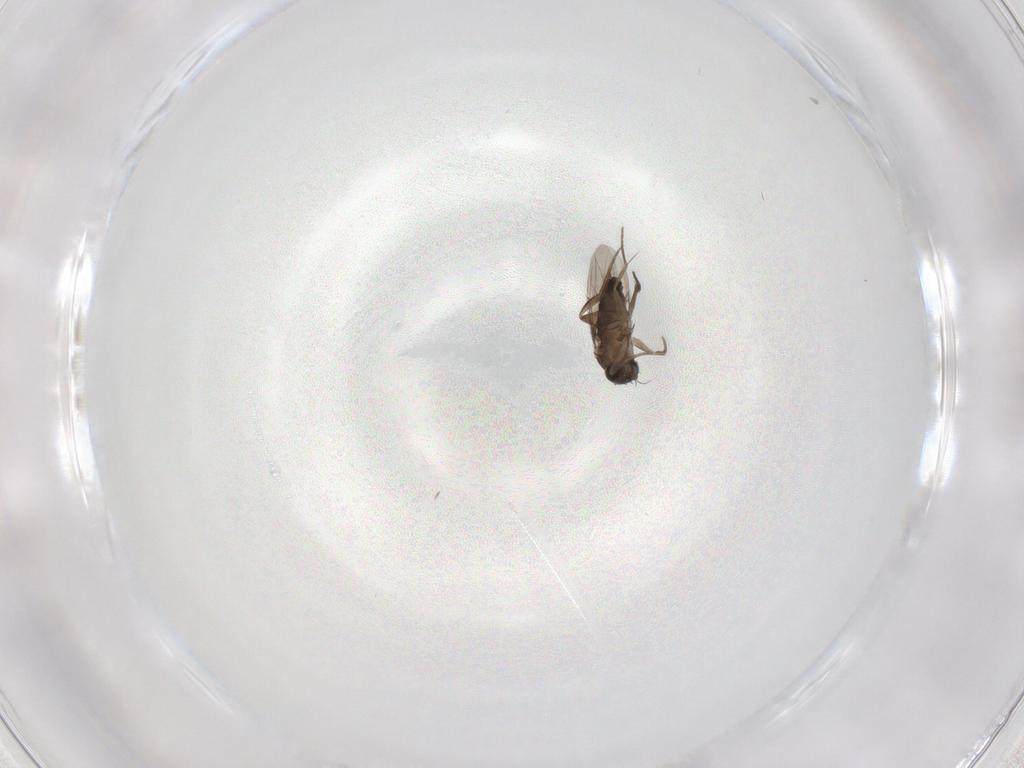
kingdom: Animalia
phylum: Arthropoda
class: Insecta
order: Diptera
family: Phoridae
